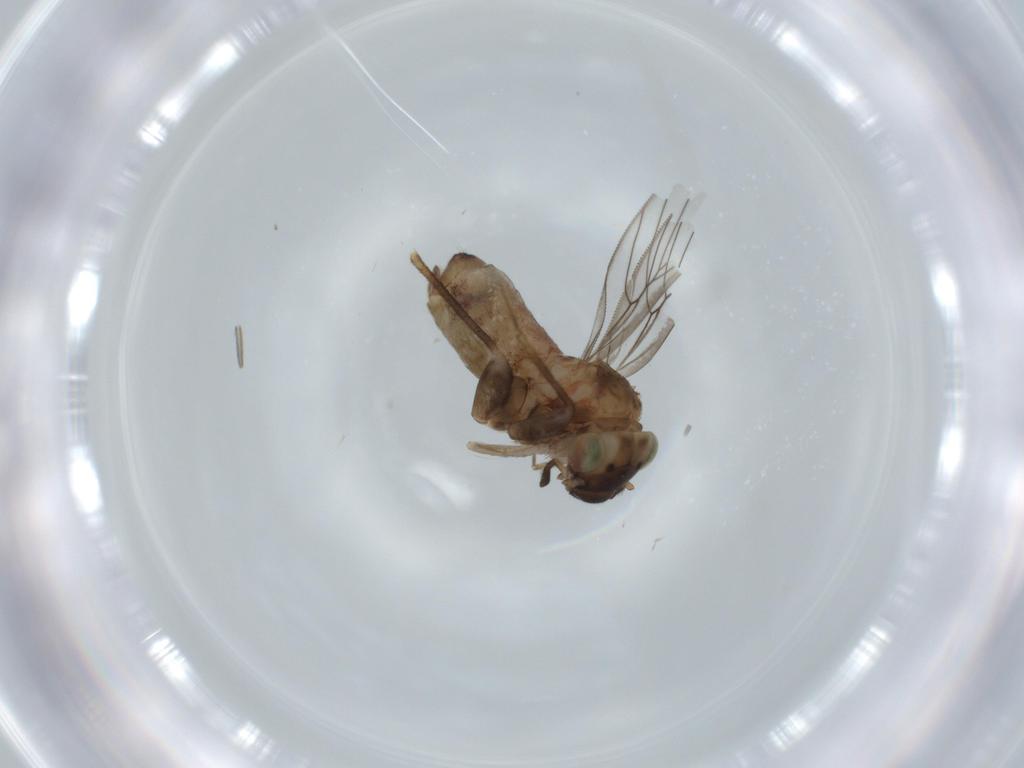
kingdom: Animalia
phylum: Arthropoda
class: Insecta
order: Psocodea
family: Lepidopsocidae
